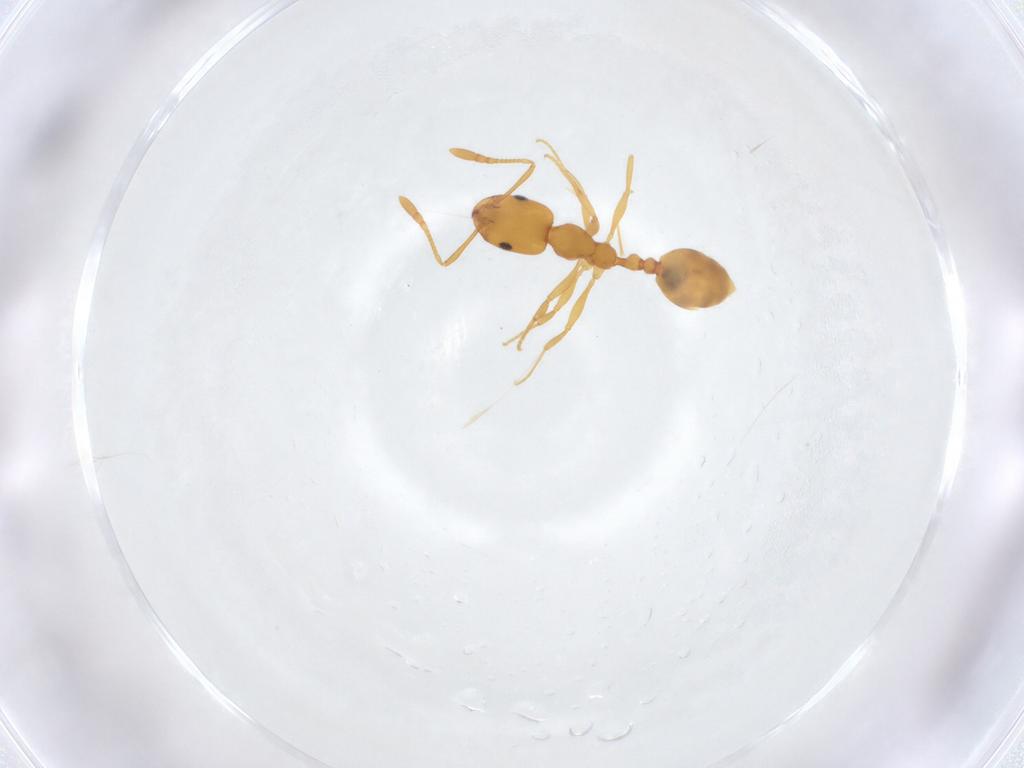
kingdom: Animalia
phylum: Arthropoda
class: Insecta
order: Hymenoptera
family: Formicidae
